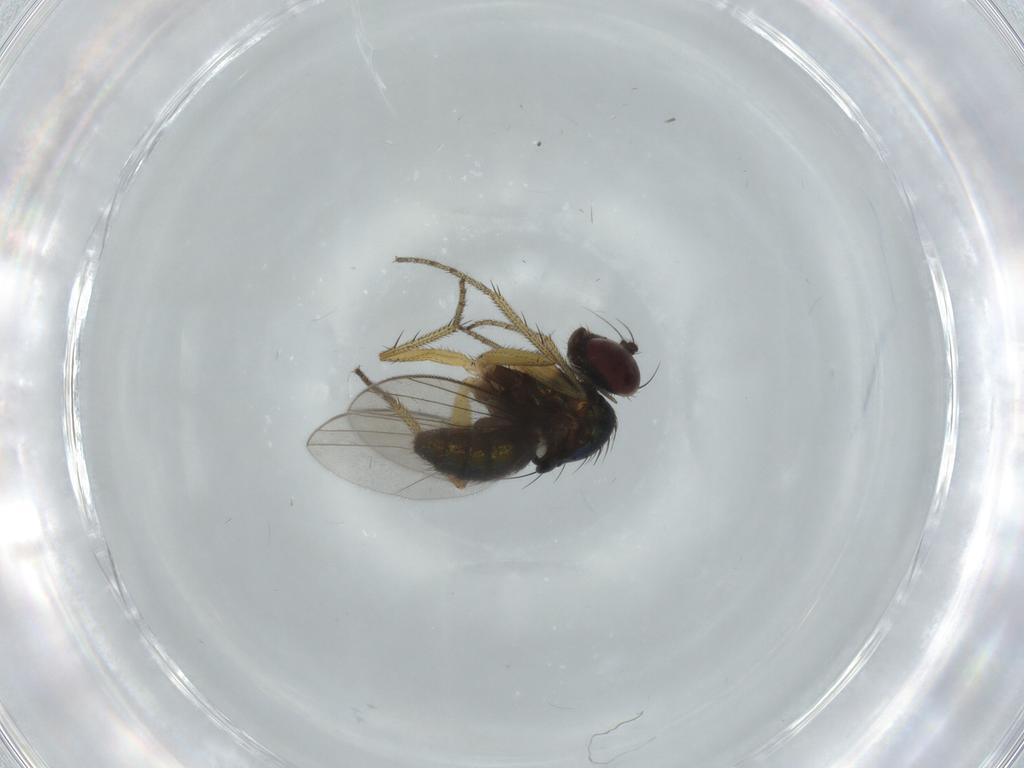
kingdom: Animalia
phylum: Arthropoda
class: Insecta
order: Diptera
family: Dolichopodidae
